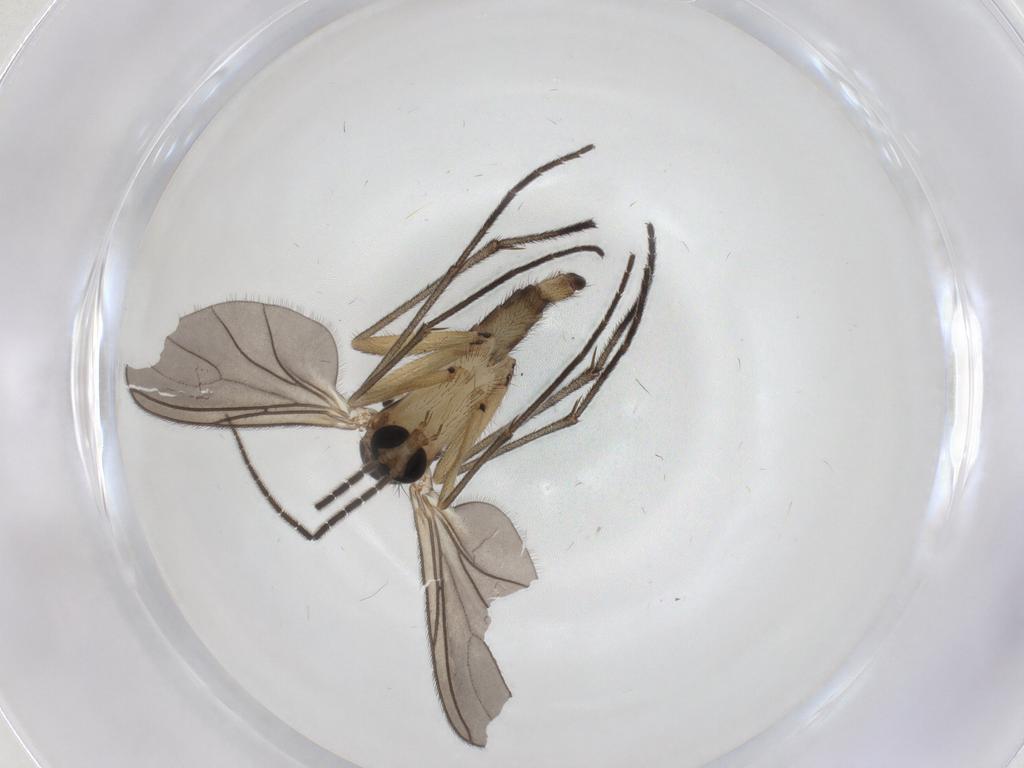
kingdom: Animalia
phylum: Arthropoda
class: Insecta
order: Diptera
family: Sciaridae
